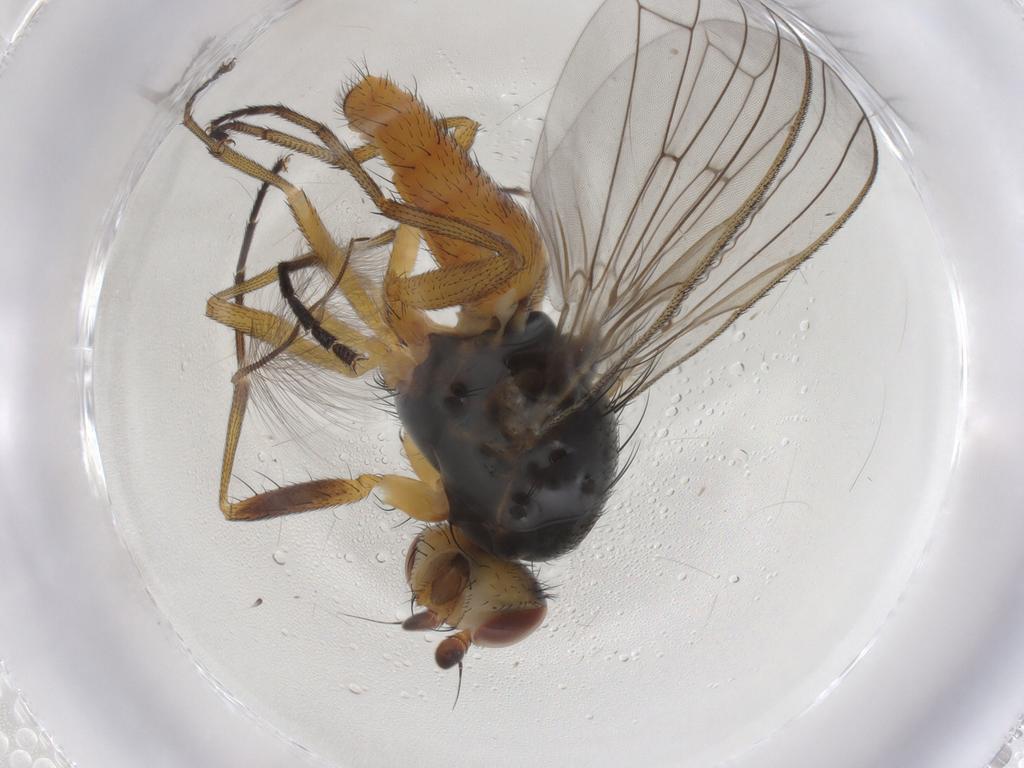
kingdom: Animalia
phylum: Arthropoda
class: Insecta
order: Diptera
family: Heleomyzidae
